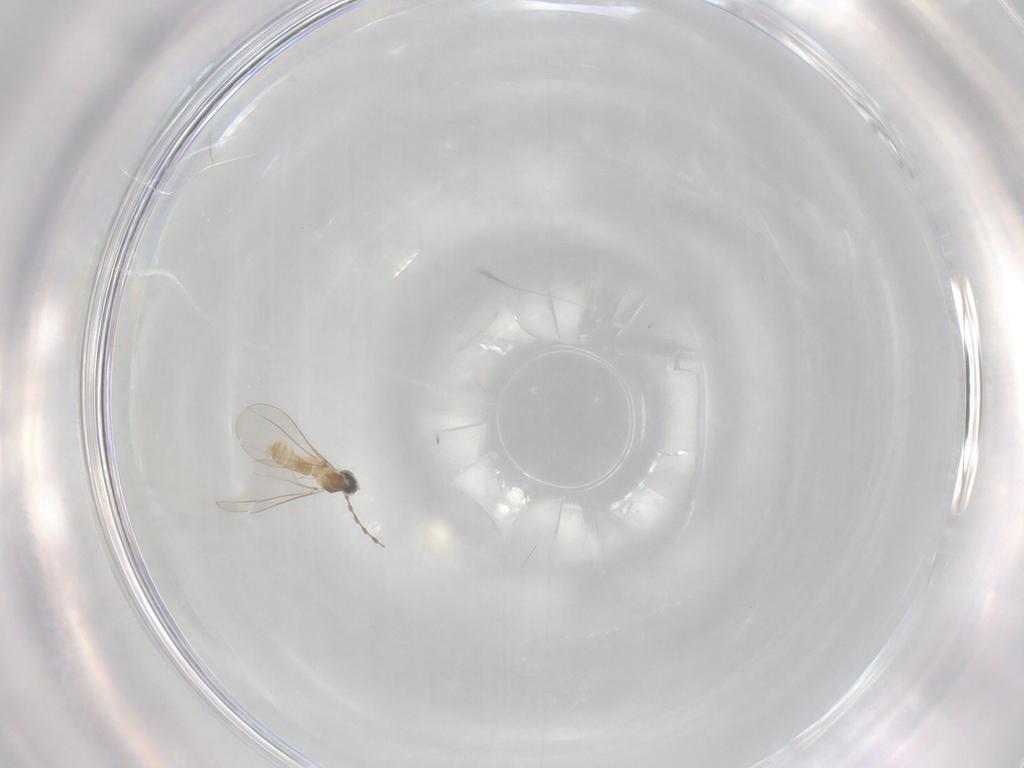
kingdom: Animalia
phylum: Arthropoda
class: Insecta
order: Diptera
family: Cecidomyiidae
